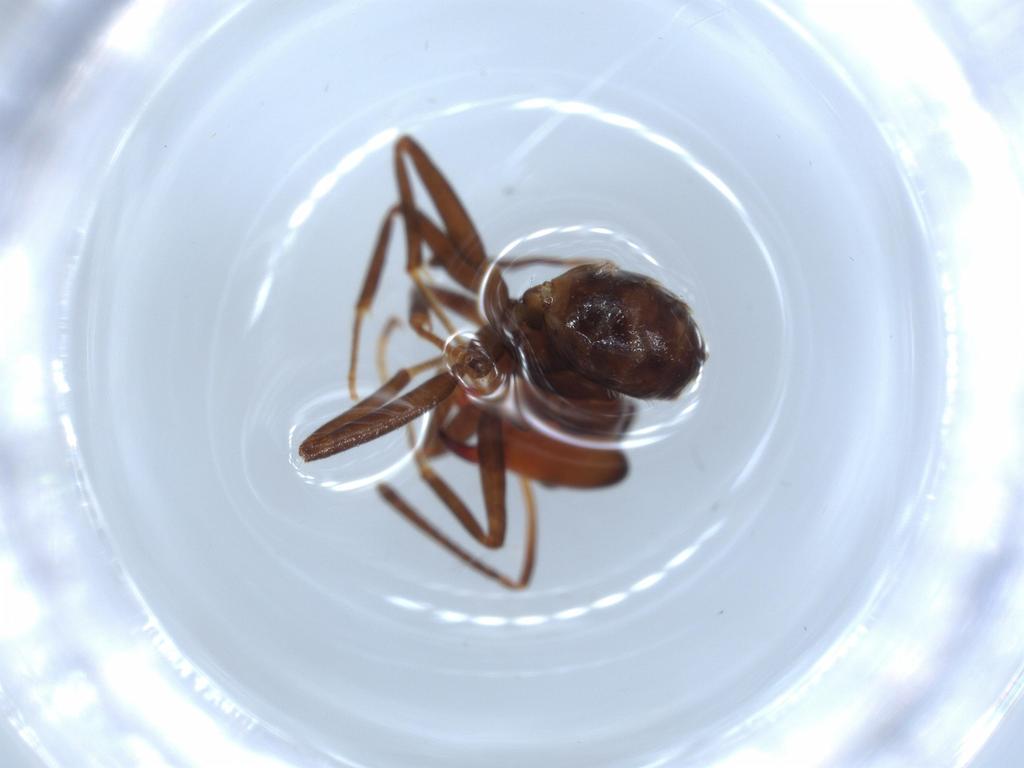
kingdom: Animalia
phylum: Arthropoda
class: Insecta
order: Hymenoptera
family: Formicidae
